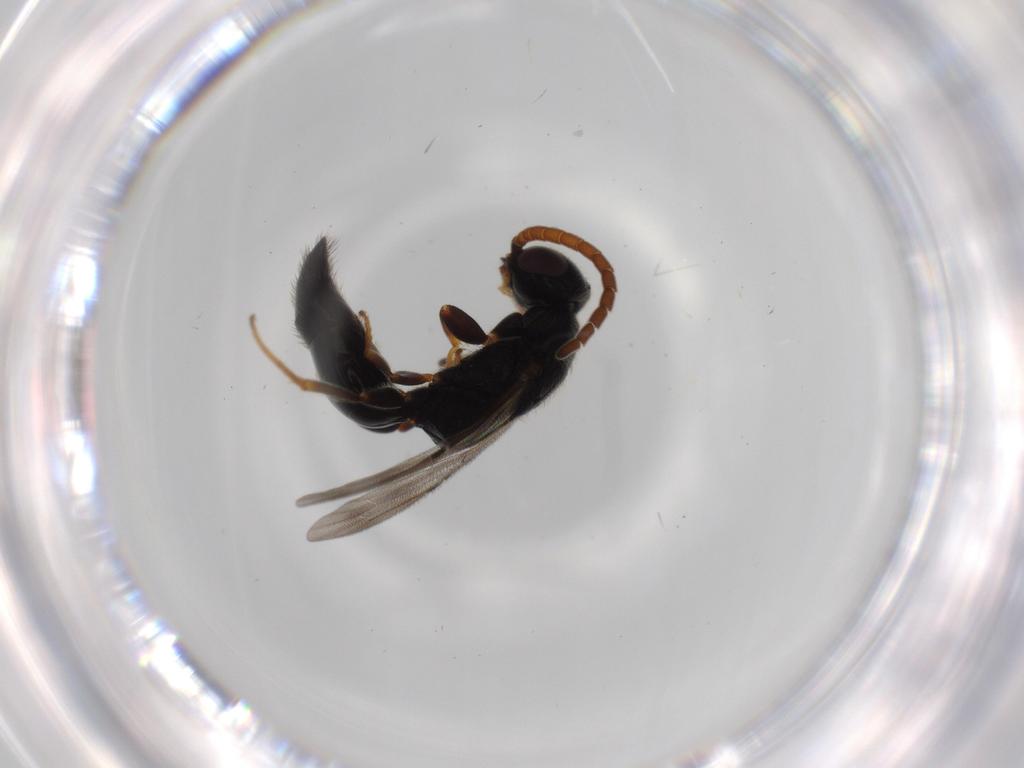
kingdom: Animalia
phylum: Arthropoda
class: Insecta
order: Hymenoptera
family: Bethylidae
